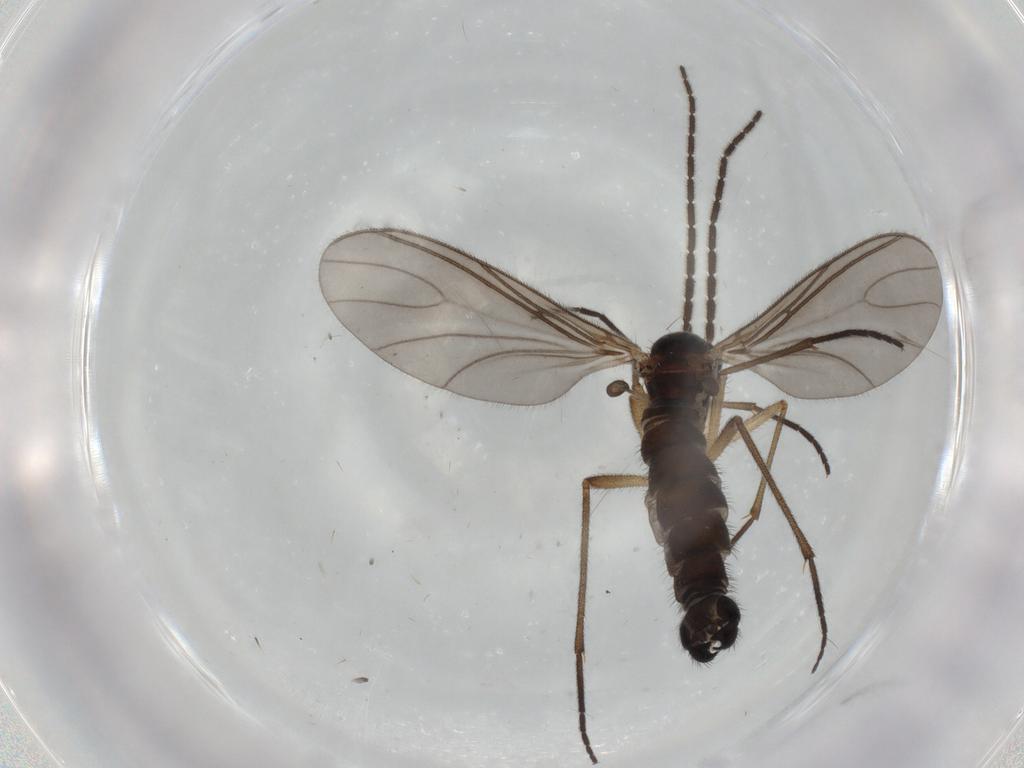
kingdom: Animalia
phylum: Arthropoda
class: Insecta
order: Diptera
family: Sciaridae
